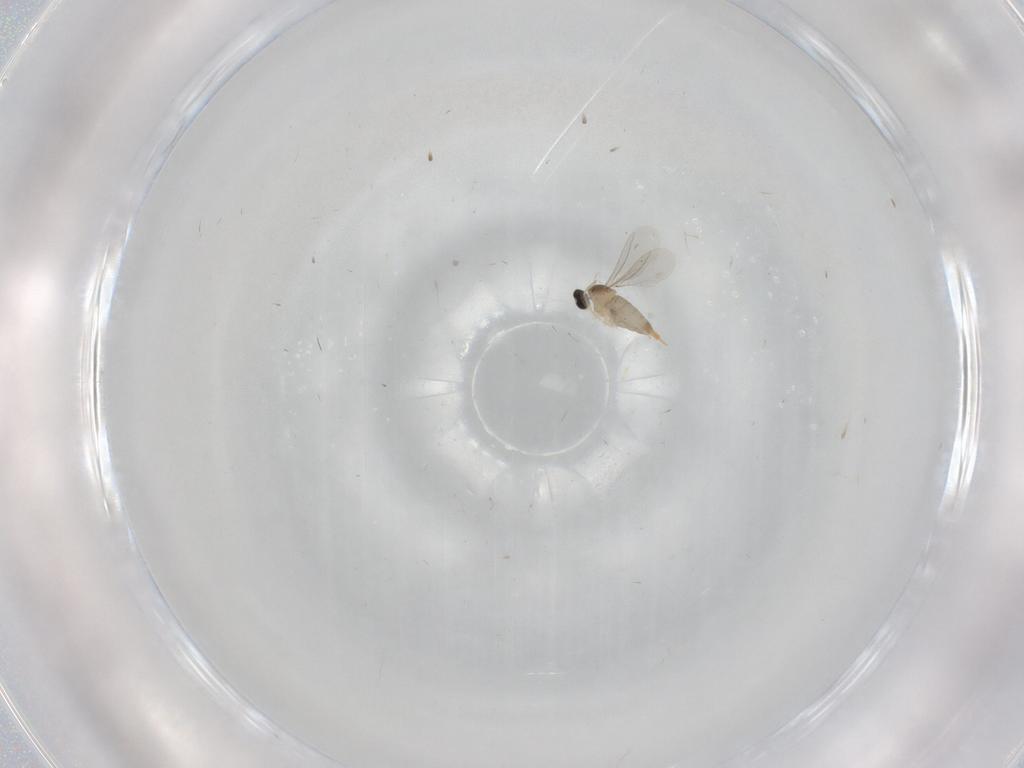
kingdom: Animalia
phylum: Arthropoda
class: Insecta
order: Diptera
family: Cecidomyiidae
